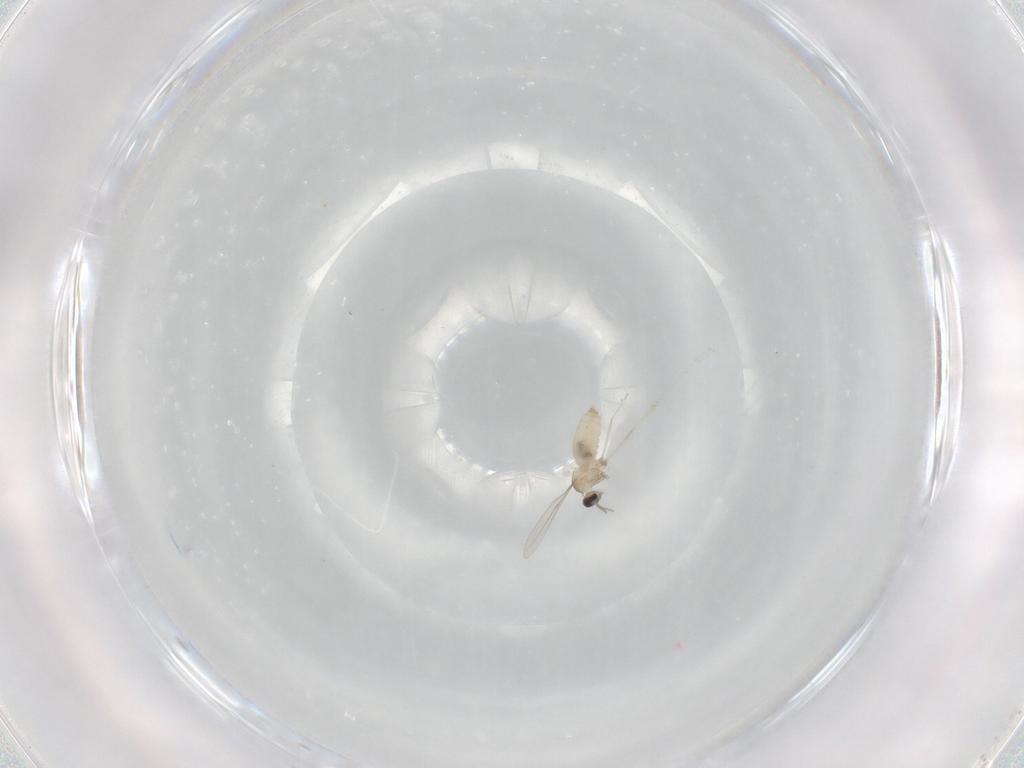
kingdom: Animalia
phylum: Arthropoda
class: Insecta
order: Diptera
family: Cecidomyiidae
